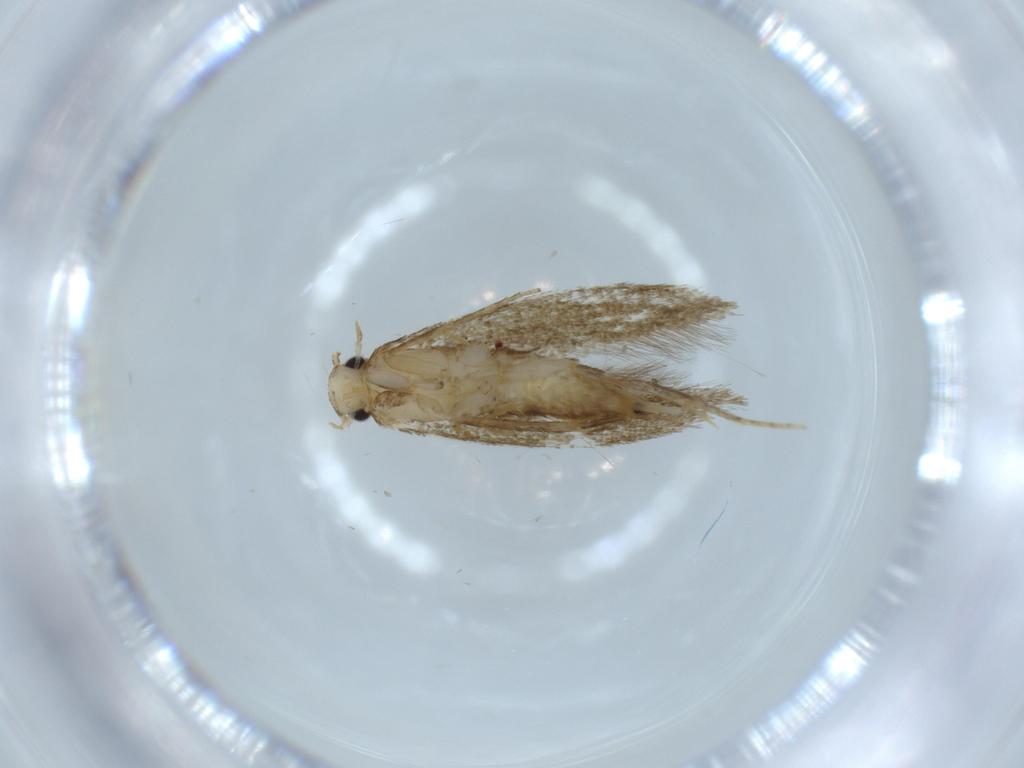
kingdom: Animalia
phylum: Arthropoda
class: Insecta
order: Lepidoptera
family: Tineidae
